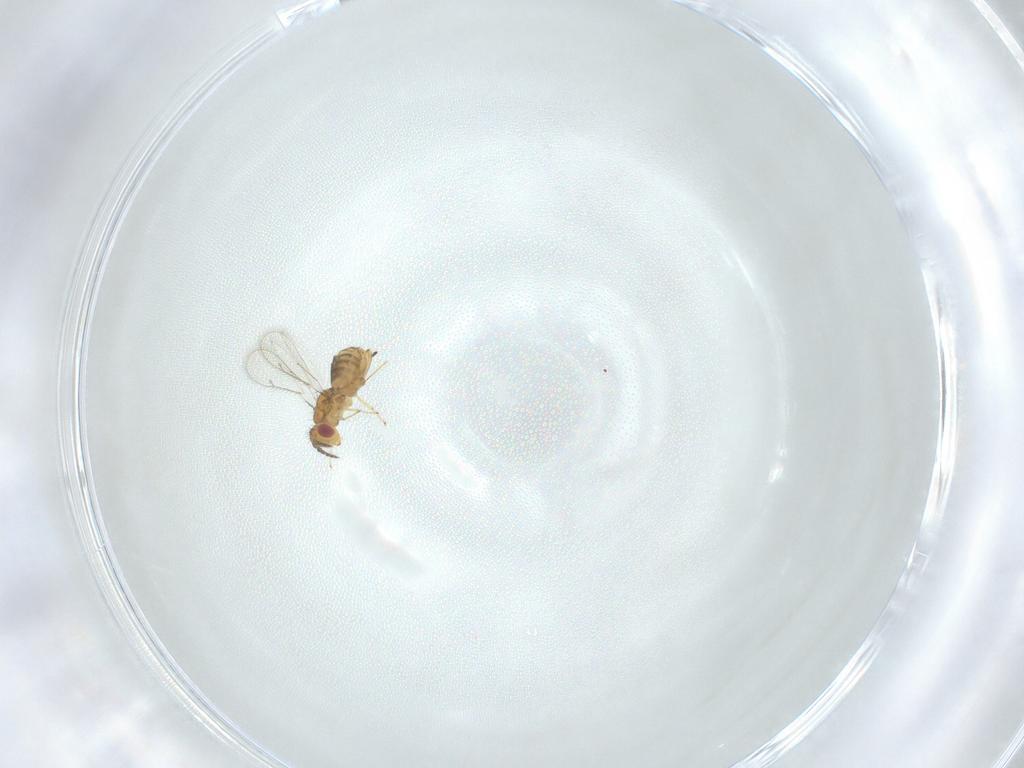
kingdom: Animalia
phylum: Arthropoda
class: Insecta
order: Hymenoptera
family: Eulophidae
